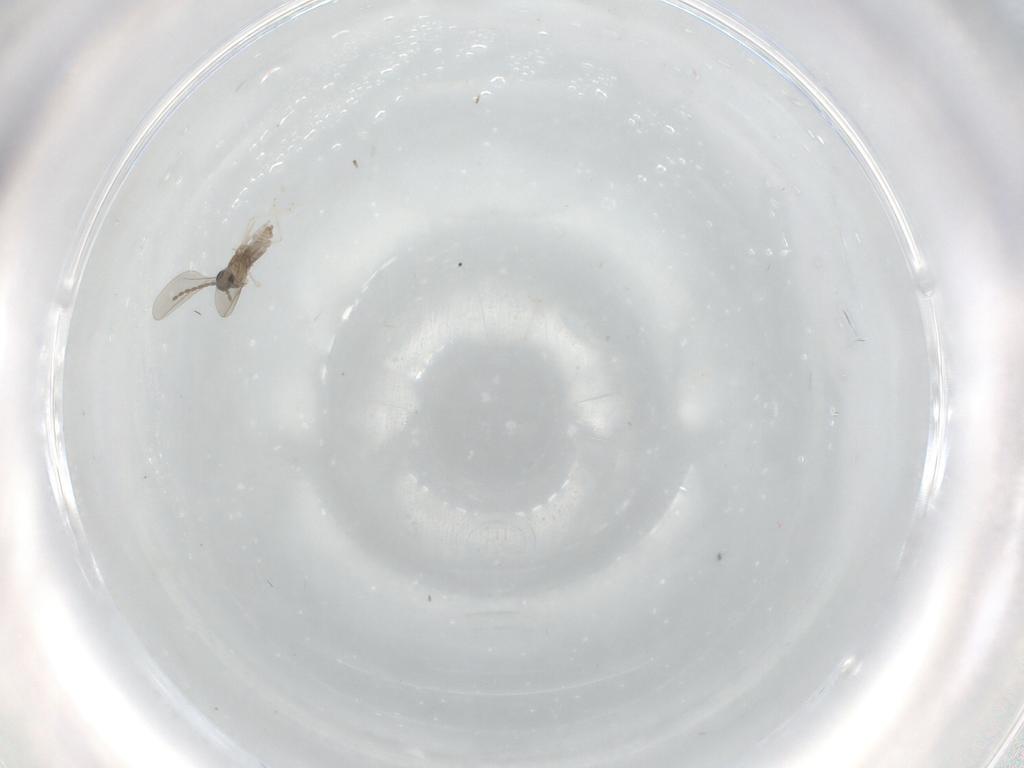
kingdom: Animalia
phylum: Arthropoda
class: Insecta
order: Diptera
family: Cecidomyiidae
